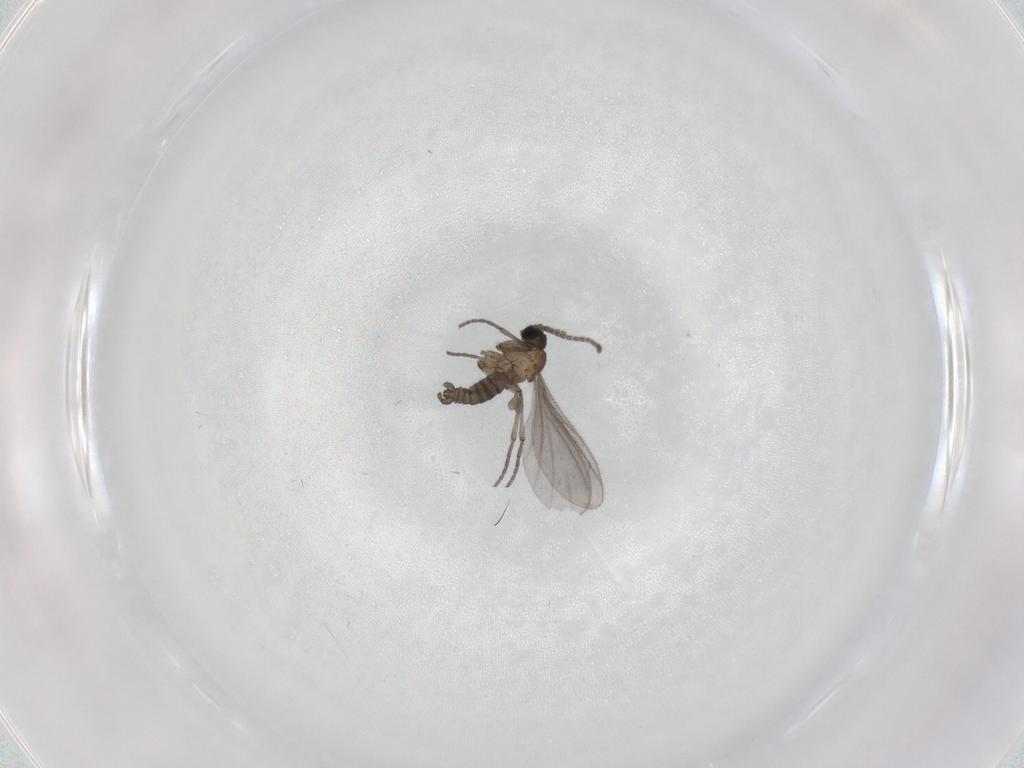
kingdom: Animalia
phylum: Arthropoda
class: Insecta
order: Diptera
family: Sciaridae
